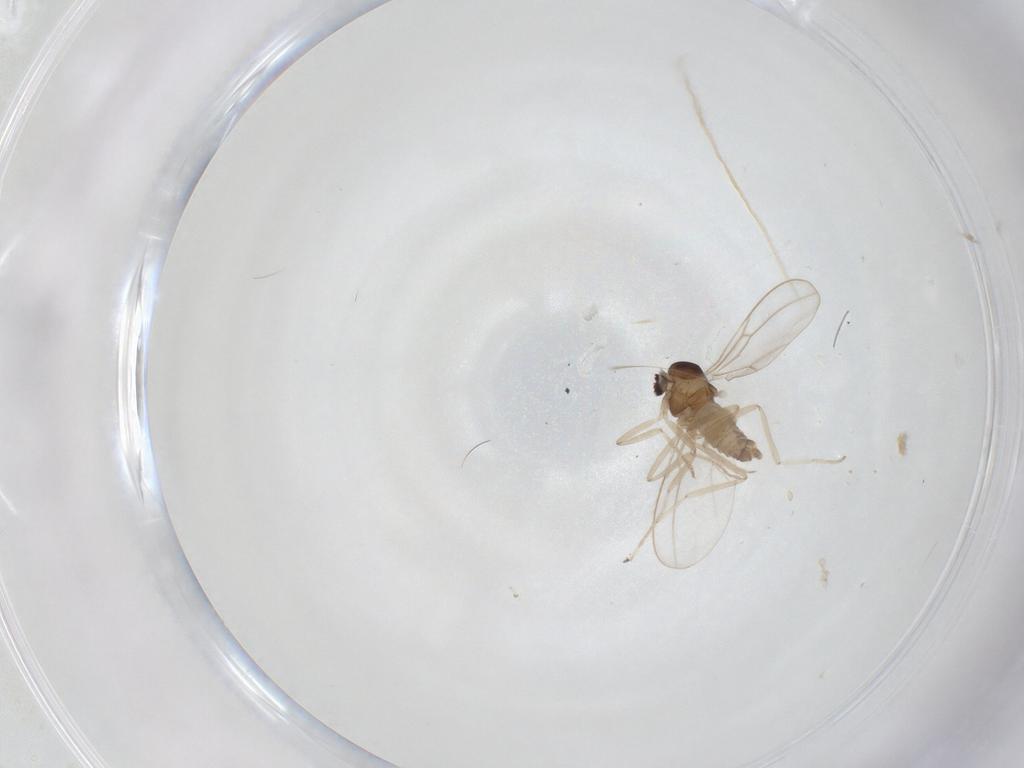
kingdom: Animalia
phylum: Arthropoda
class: Insecta
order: Diptera
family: Cecidomyiidae
